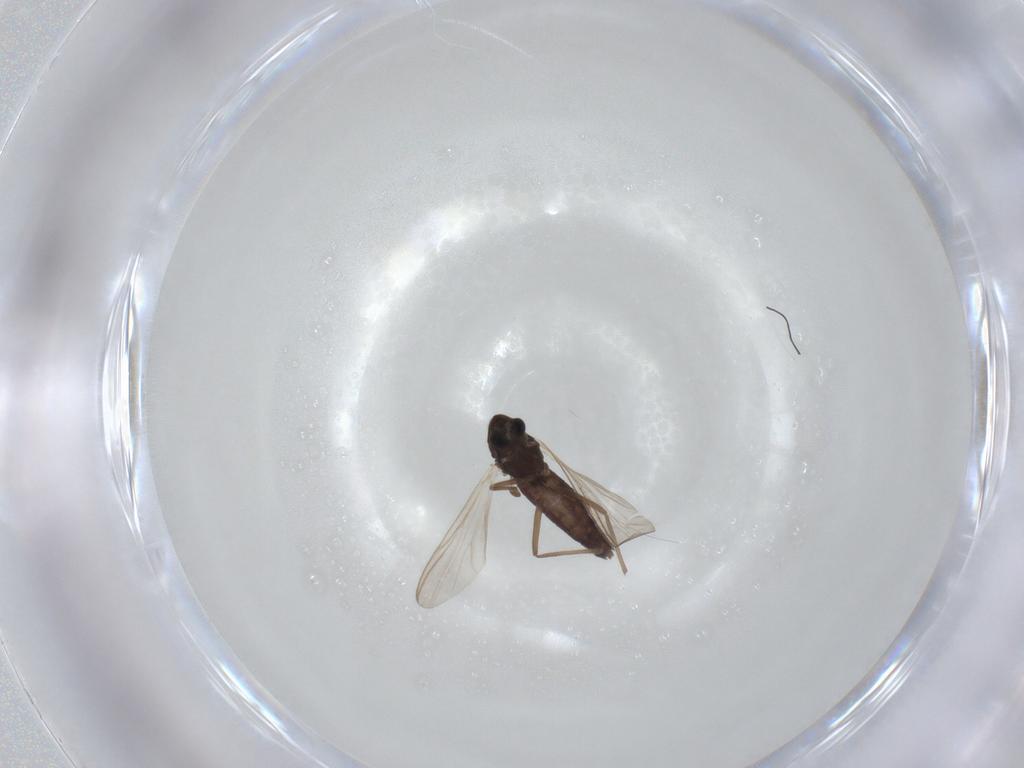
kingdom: Animalia
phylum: Arthropoda
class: Insecta
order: Diptera
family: Chironomidae
